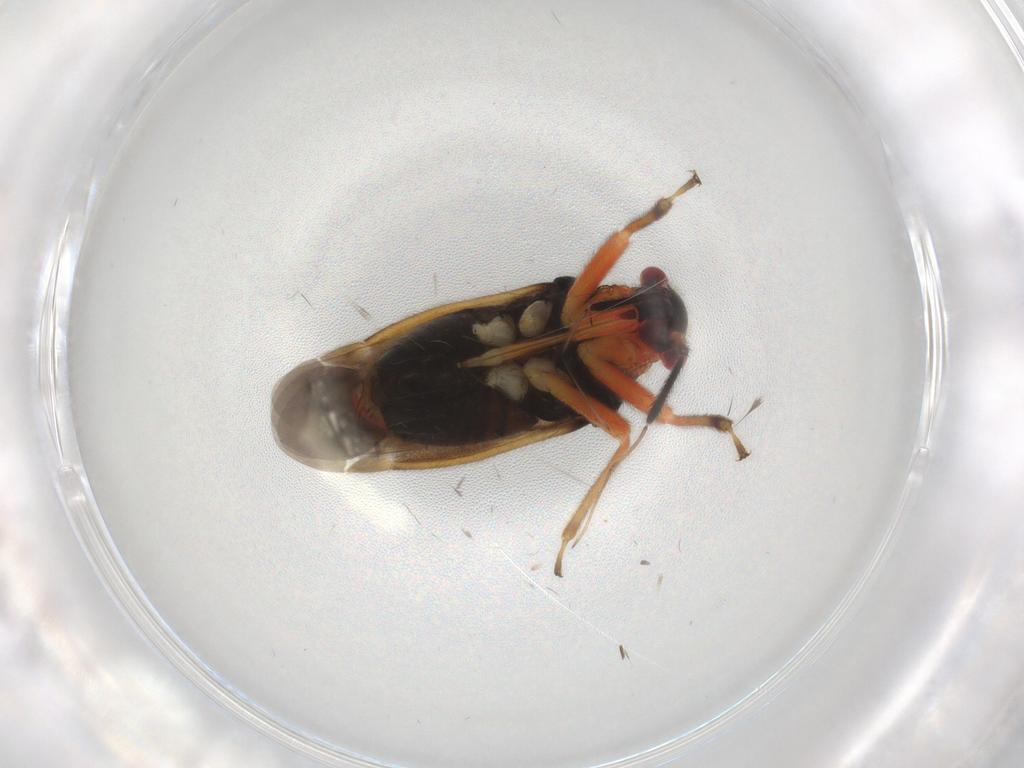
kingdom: Animalia
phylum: Arthropoda
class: Insecta
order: Hemiptera
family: Miridae
